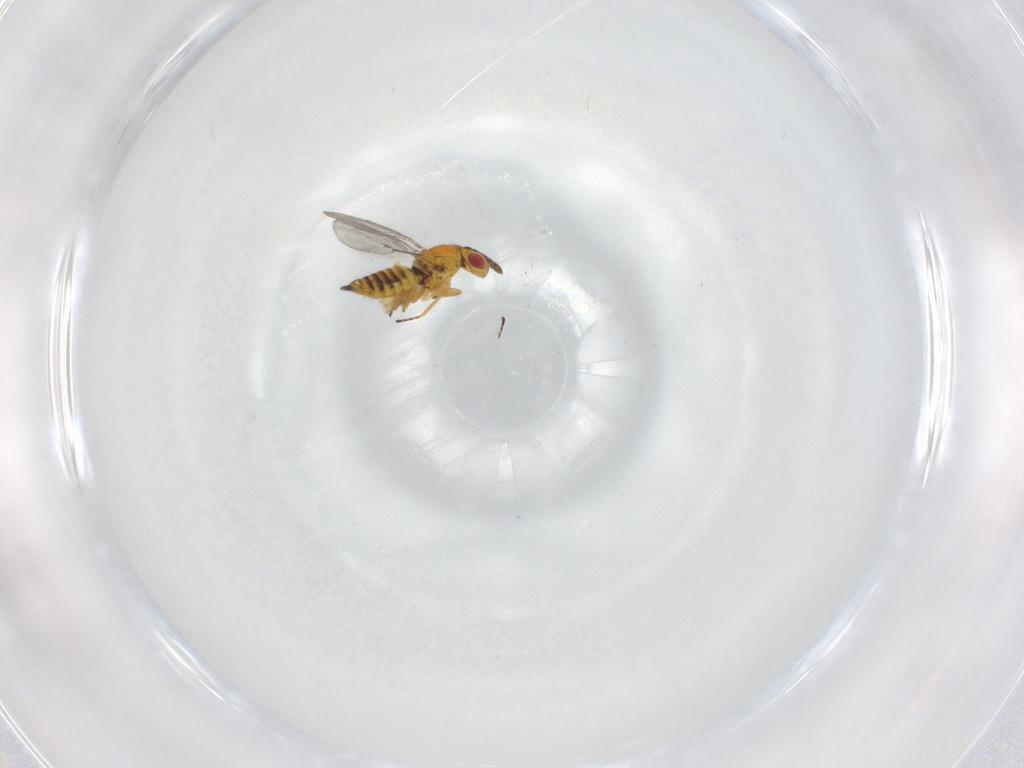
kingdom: Animalia
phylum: Arthropoda
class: Insecta
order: Hymenoptera
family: Eulophidae
